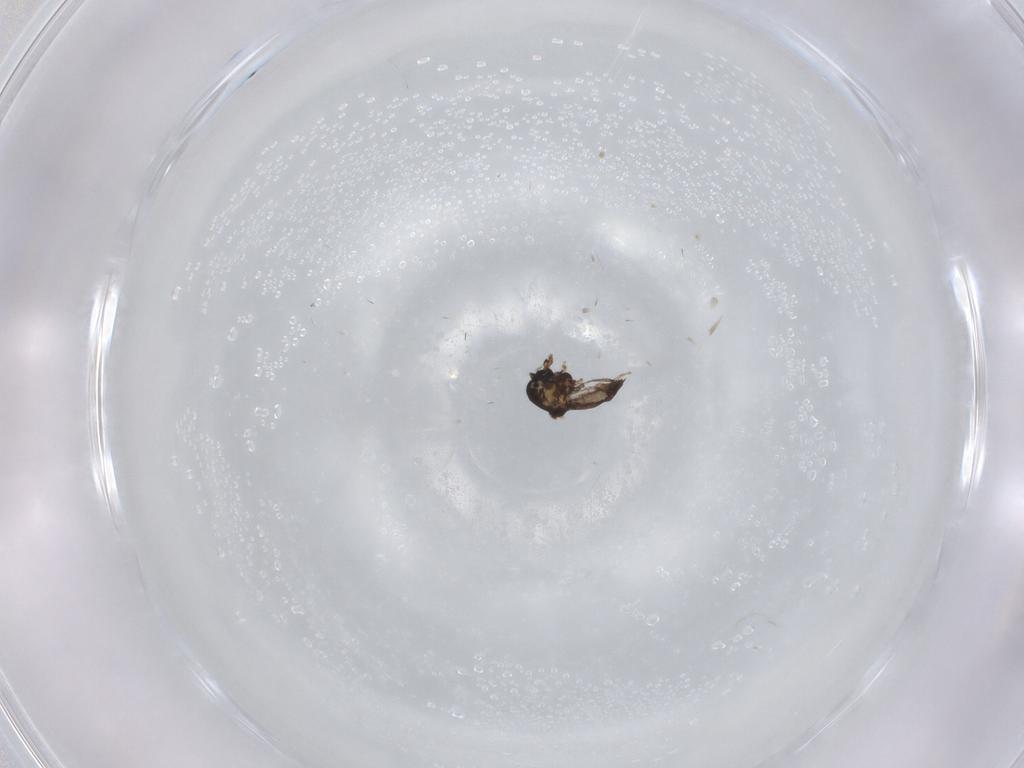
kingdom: Animalia
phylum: Arthropoda
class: Insecta
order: Diptera
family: Ceratopogonidae
